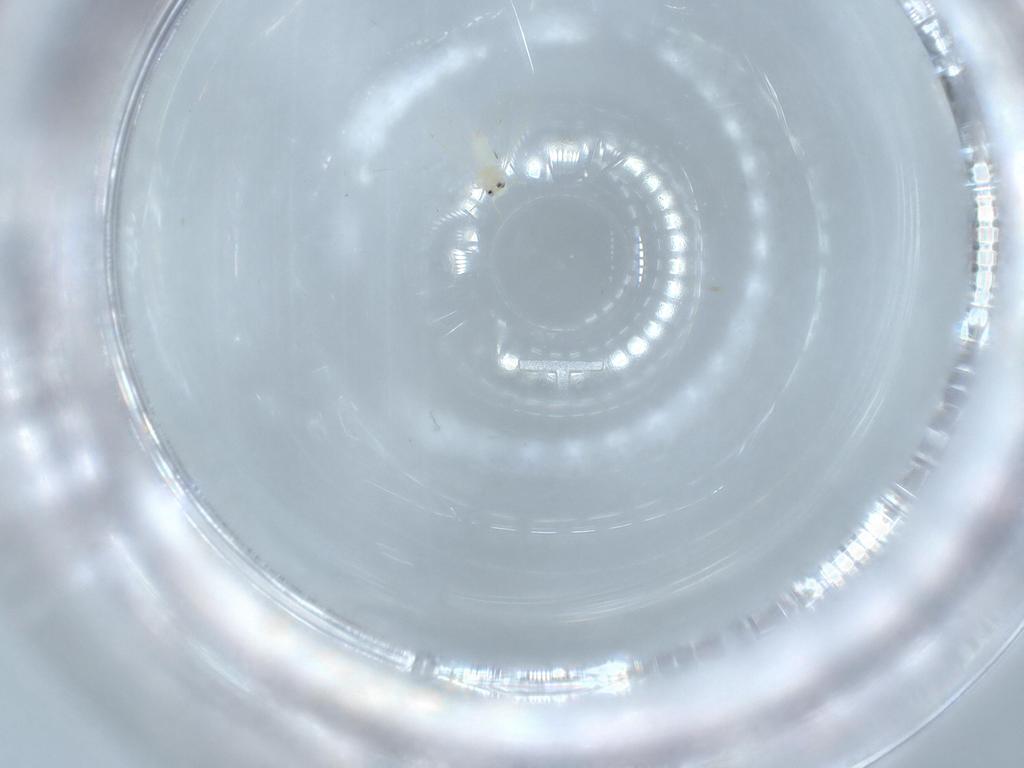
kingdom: Animalia
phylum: Arthropoda
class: Insecta
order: Hemiptera
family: Aleyrodidae
